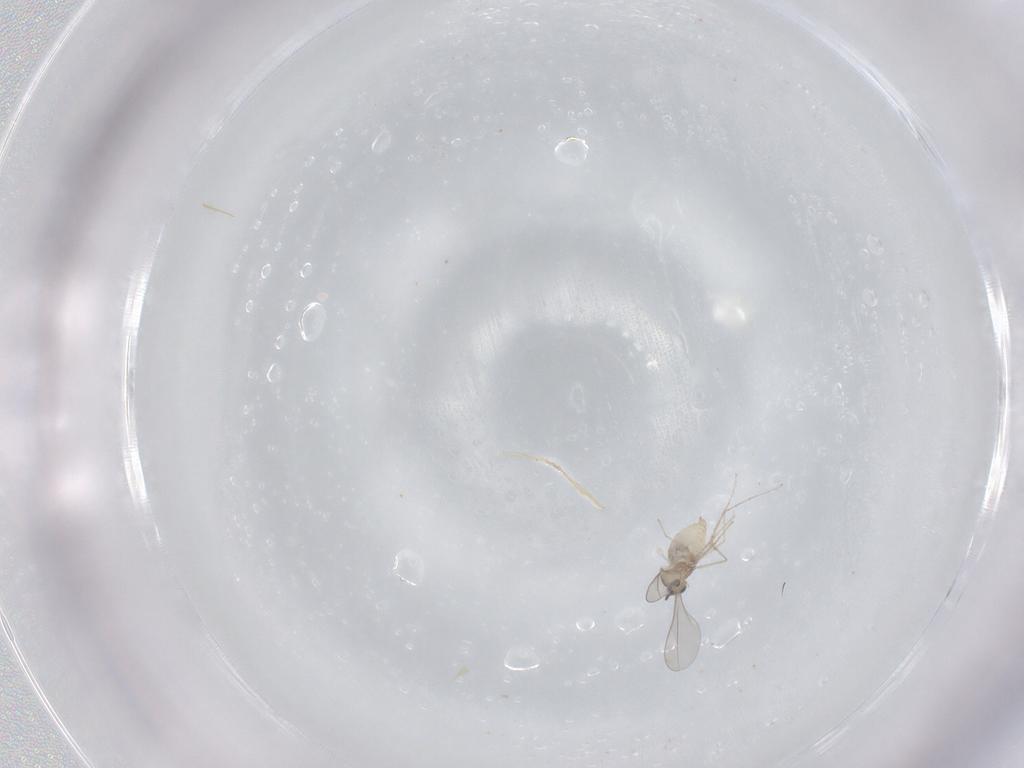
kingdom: Animalia
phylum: Arthropoda
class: Insecta
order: Diptera
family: Cecidomyiidae
